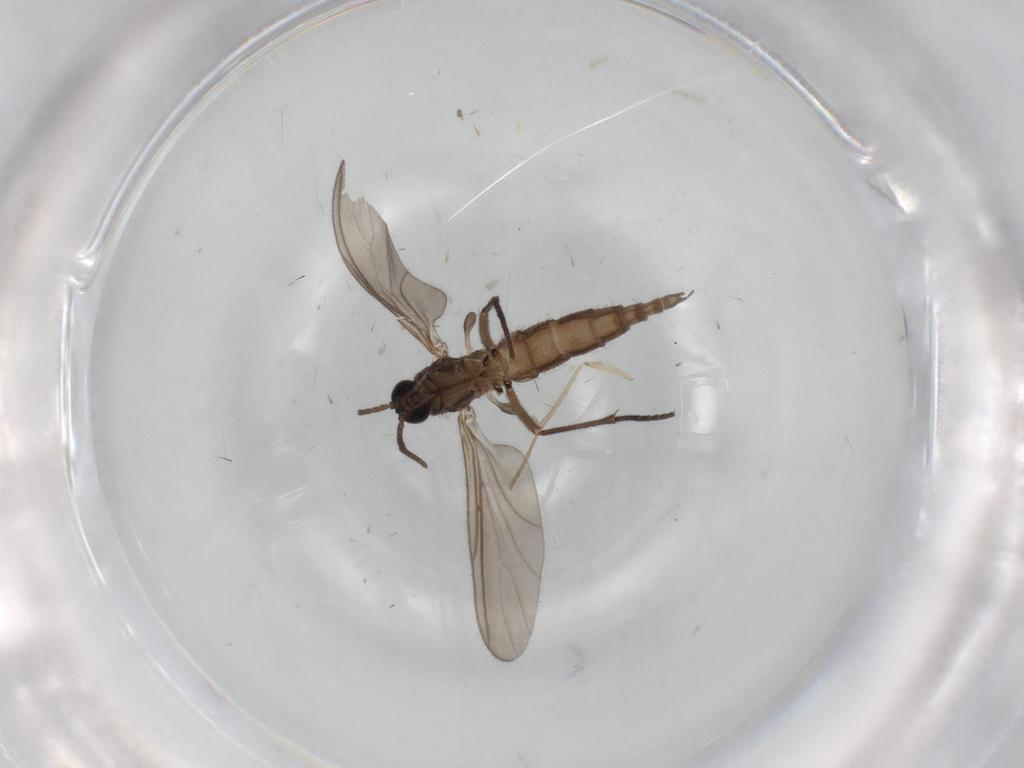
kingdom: Animalia
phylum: Arthropoda
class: Insecta
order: Diptera
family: Sciaridae
